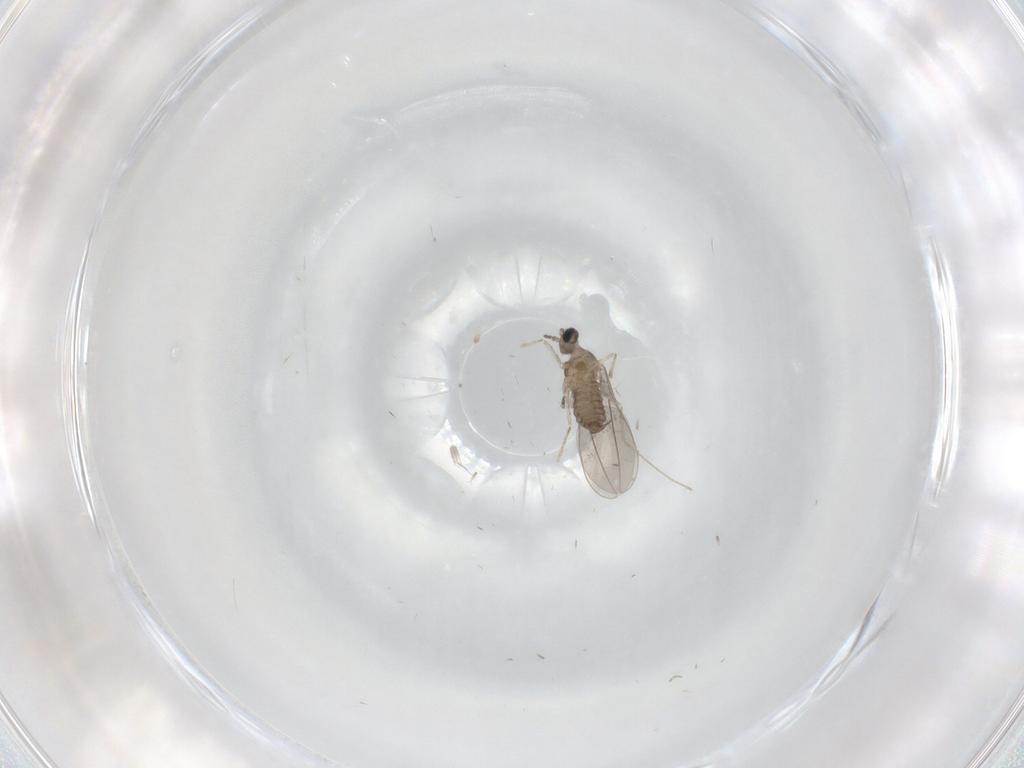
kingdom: Animalia
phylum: Arthropoda
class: Insecta
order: Diptera
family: Cecidomyiidae
